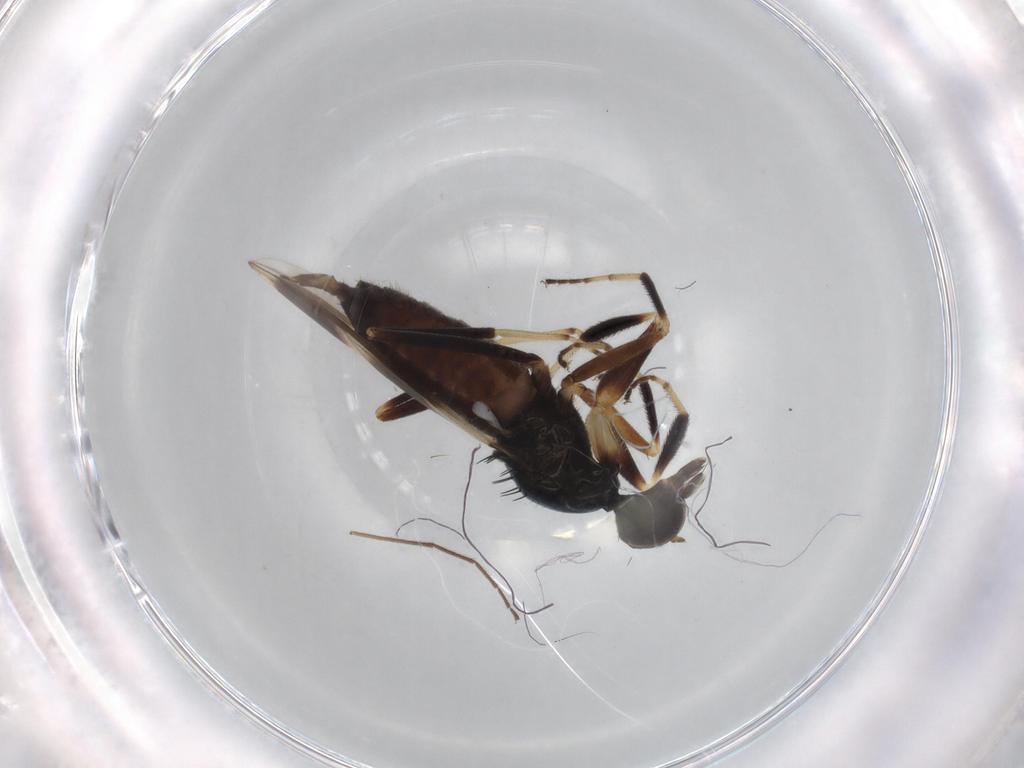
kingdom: Animalia
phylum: Arthropoda
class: Insecta
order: Diptera
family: Hybotidae
